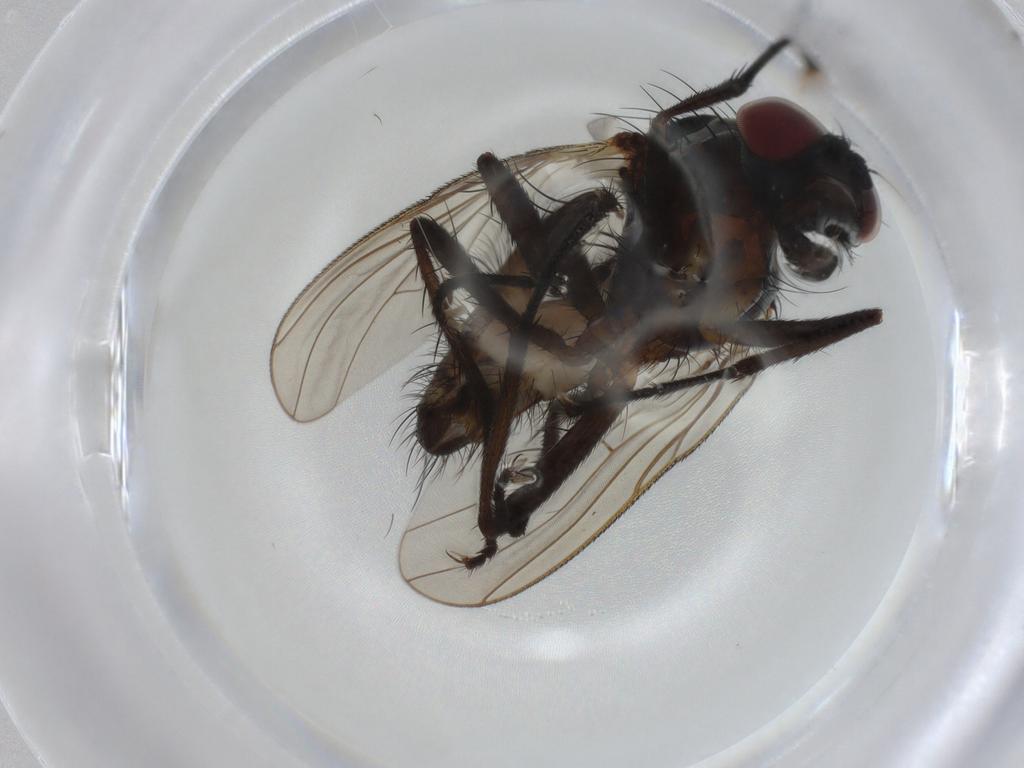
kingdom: Animalia
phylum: Arthropoda
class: Insecta
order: Diptera
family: Anthomyiidae
